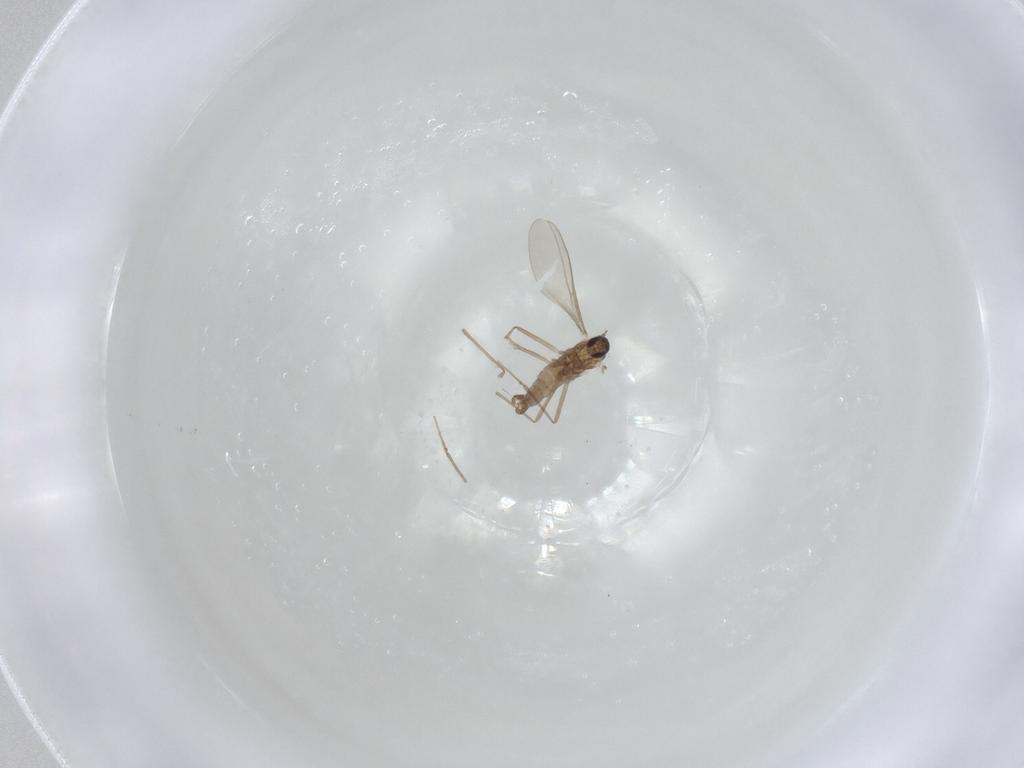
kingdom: Animalia
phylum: Arthropoda
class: Insecta
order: Diptera
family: Cecidomyiidae
